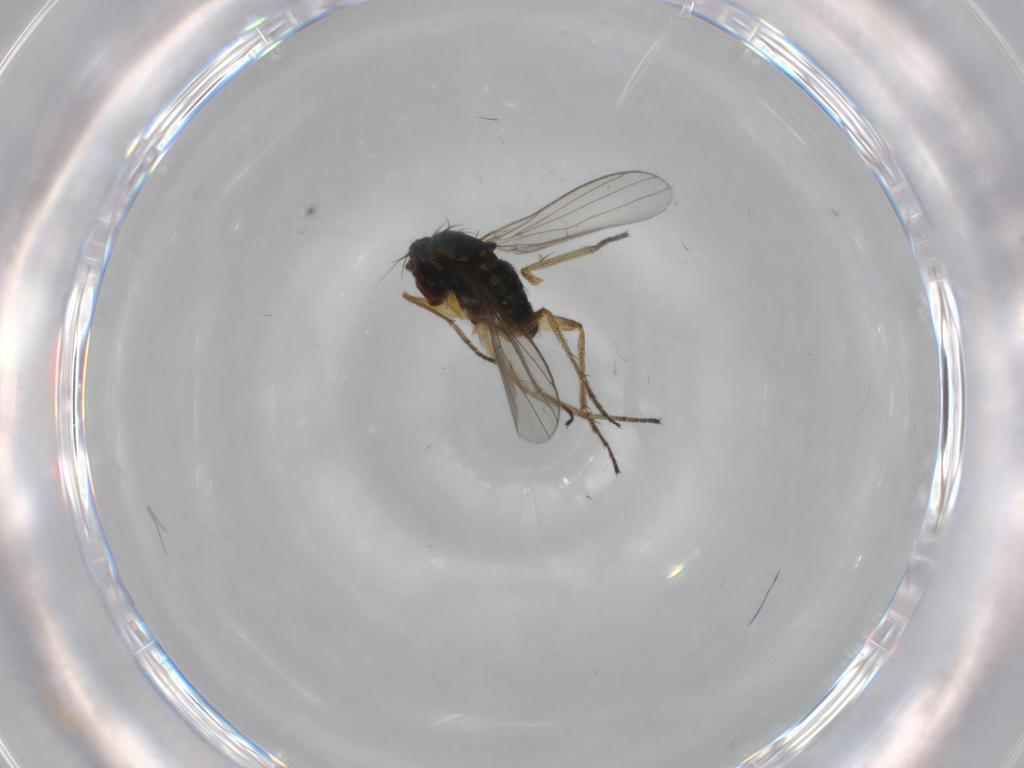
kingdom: Animalia
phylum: Arthropoda
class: Insecta
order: Diptera
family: Dolichopodidae
